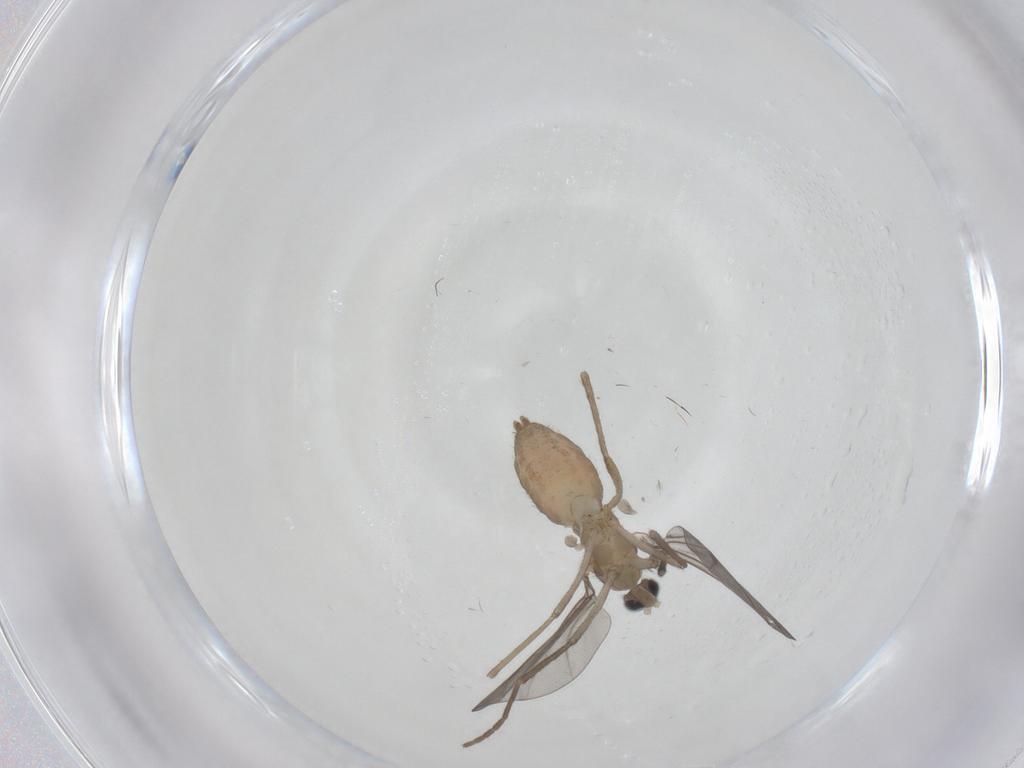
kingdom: Animalia
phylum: Arthropoda
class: Insecta
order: Diptera
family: Cecidomyiidae
